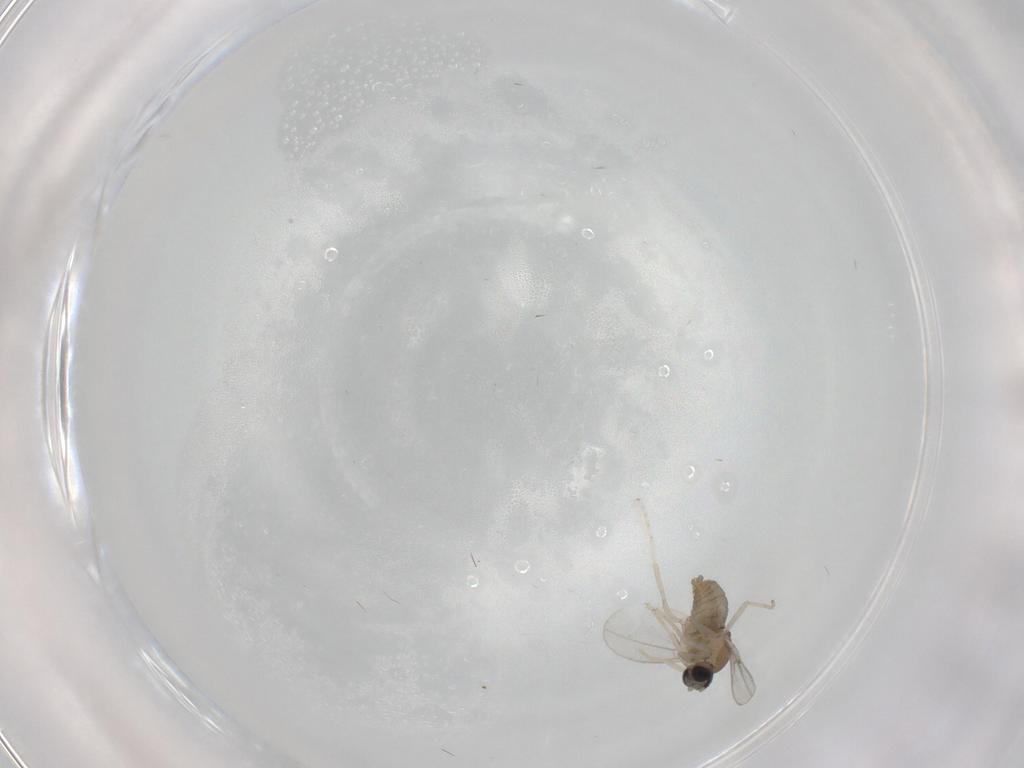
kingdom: Animalia
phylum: Arthropoda
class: Insecta
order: Diptera
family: Cecidomyiidae
